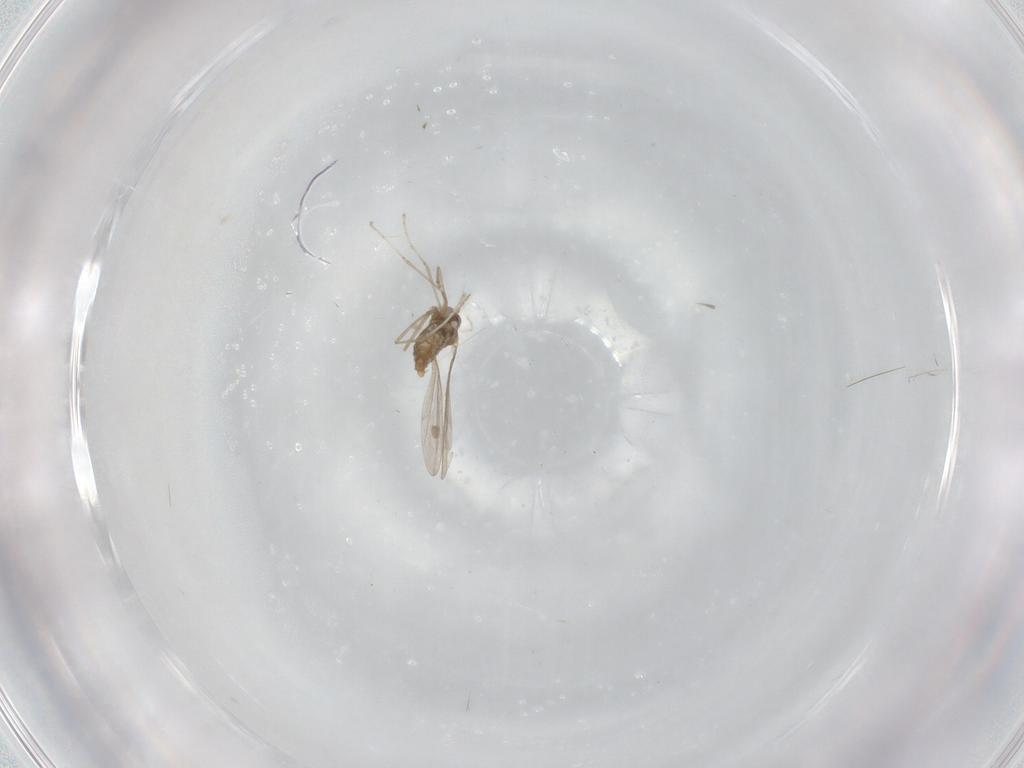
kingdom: Animalia
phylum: Arthropoda
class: Insecta
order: Diptera
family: Cecidomyiidae
